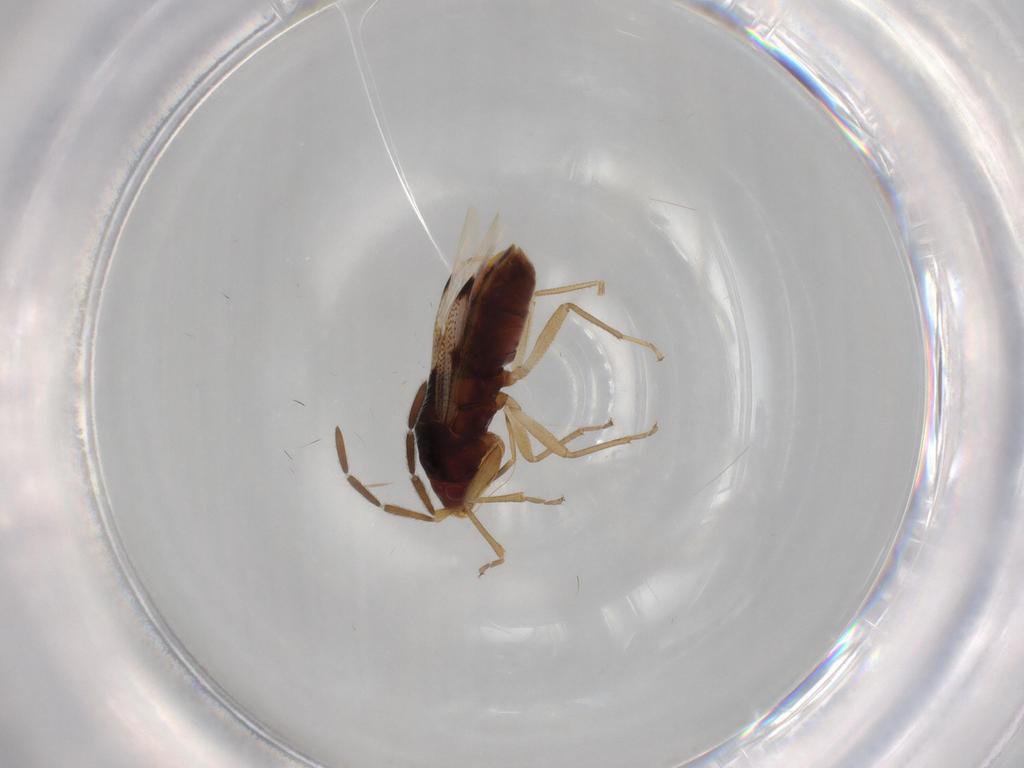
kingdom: Animalia
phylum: Arthropoda
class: Insecta
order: Hemiptera
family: Rhyparochromidae
